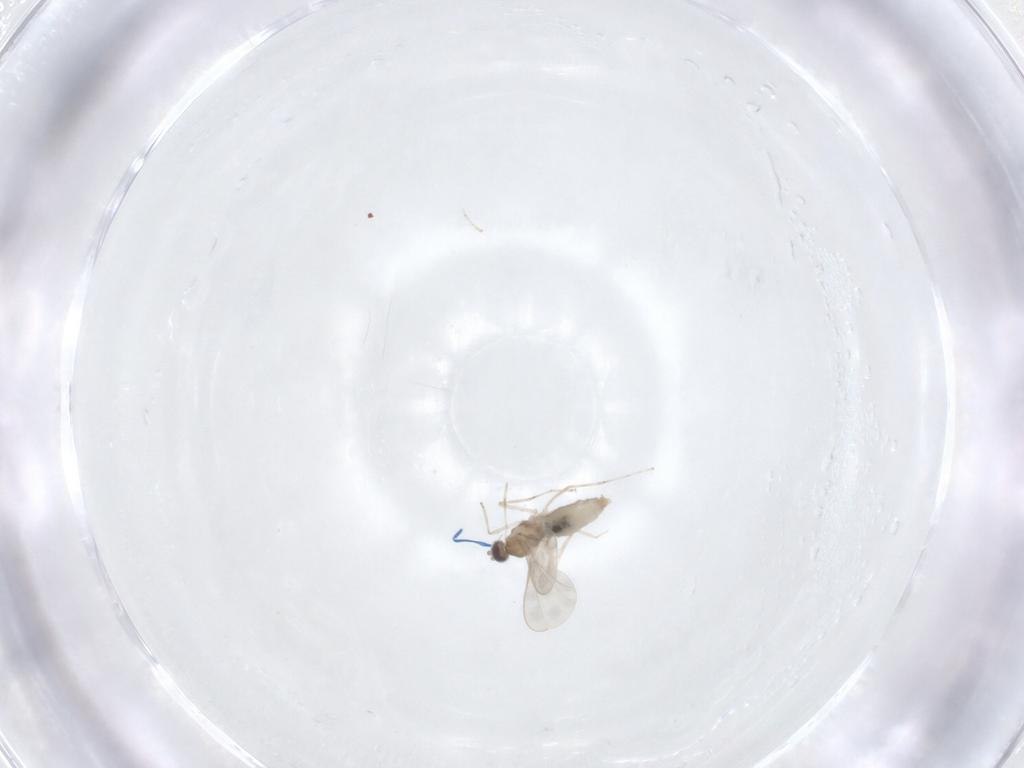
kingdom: Animalia
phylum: Arthropoda
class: Insecta
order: Diptera
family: Cecidomyiidae
